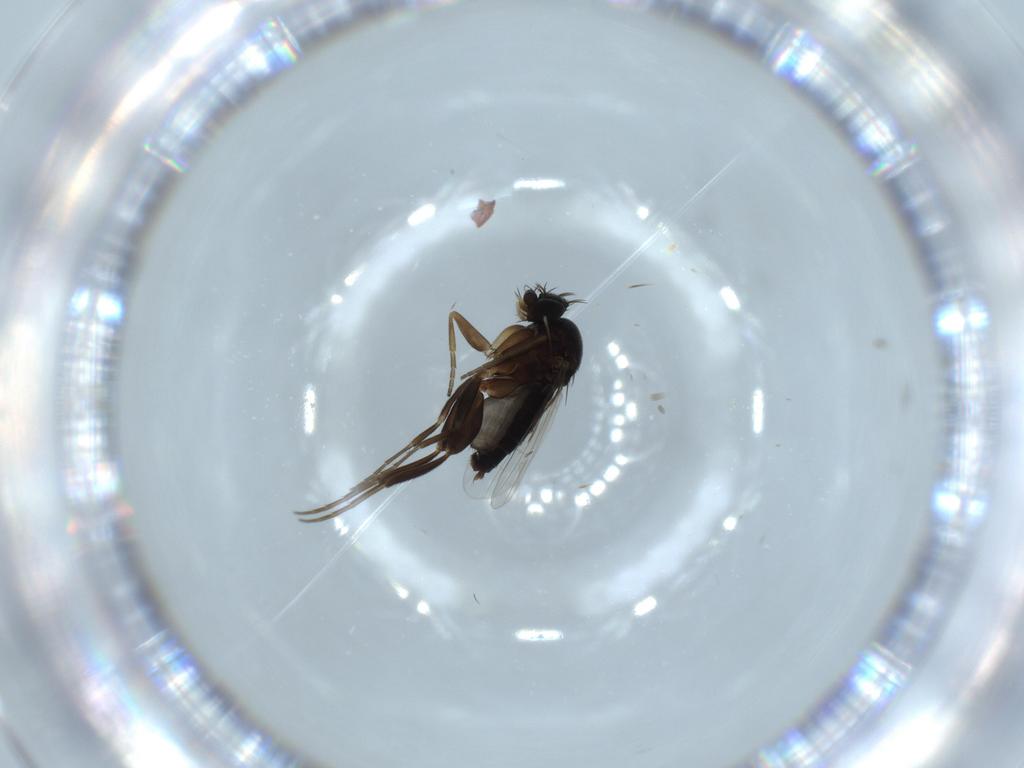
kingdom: Animalia
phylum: Arthropoda
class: Insecta
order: Diptera
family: Phoridae
